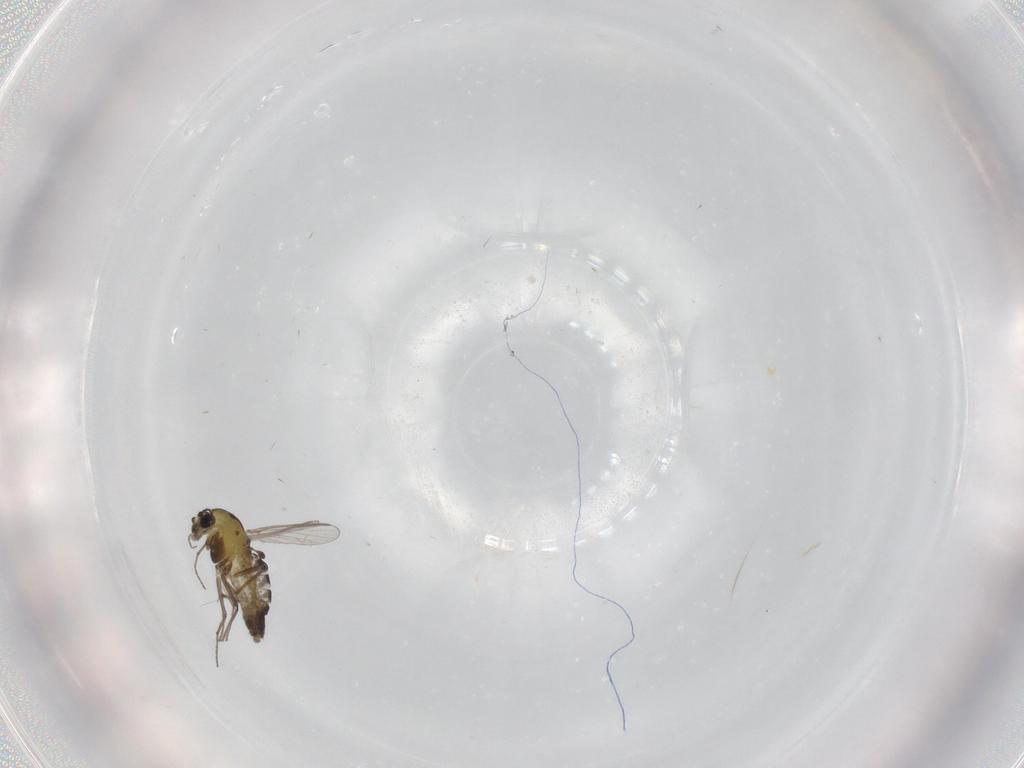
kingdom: Animalia
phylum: Arthropoda
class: Insecta
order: Diptera
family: Chironomidae
